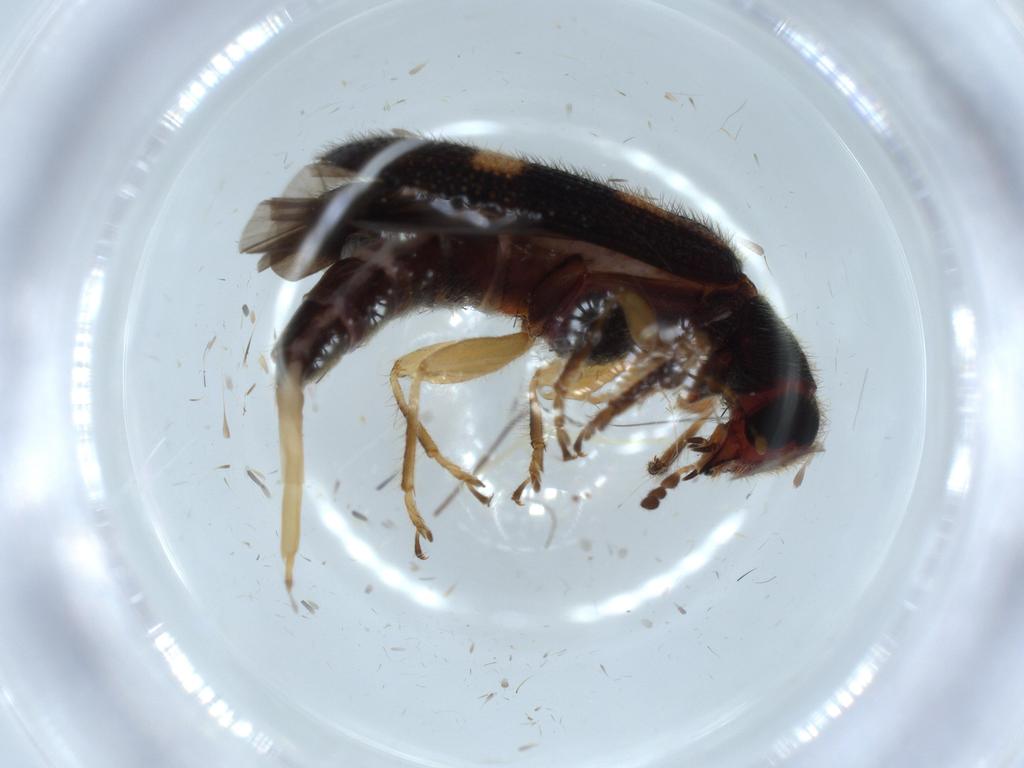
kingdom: Animalia
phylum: Arthropoda
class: Insecta
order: Coleoptera
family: Cleridae
